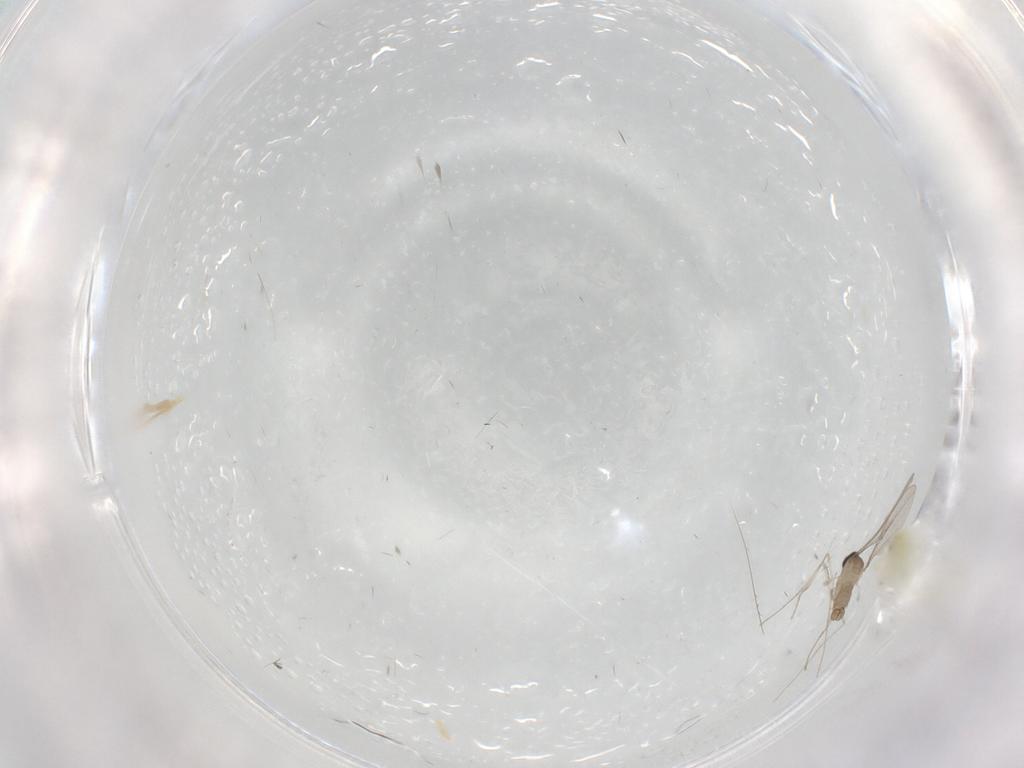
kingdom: Animalia
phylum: Arthropoda
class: Insecta
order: Diptera
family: Cecidomyiidae
